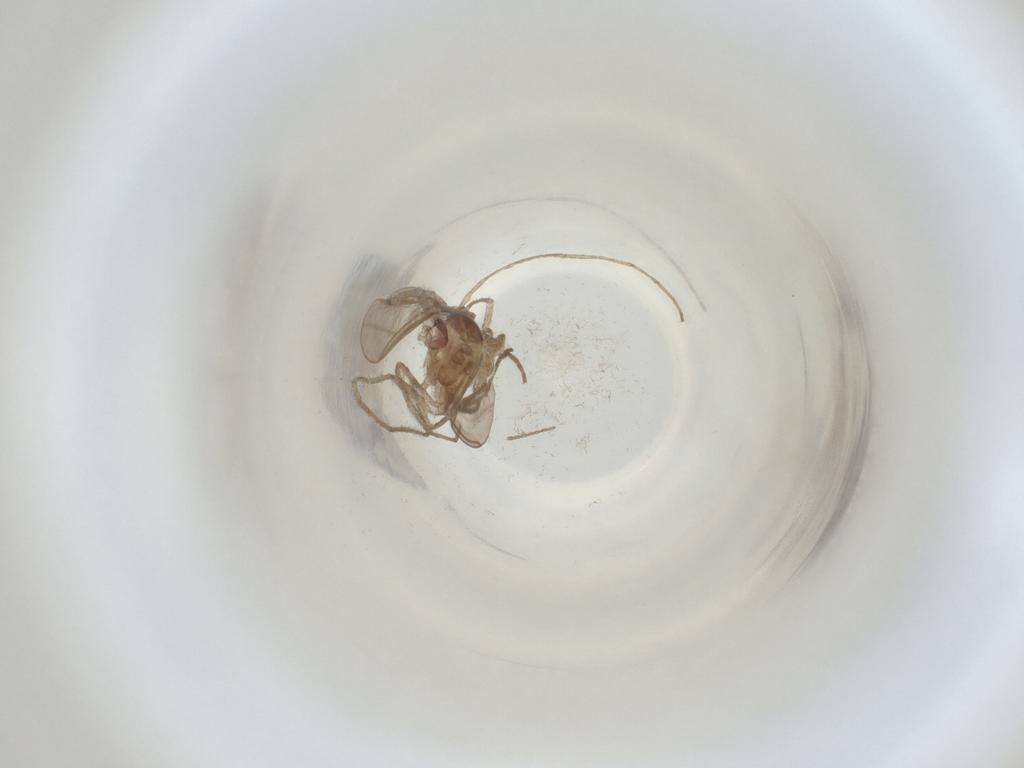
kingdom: Animalia
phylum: Arthropoda
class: Insecta
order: Diptera
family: Cecidomyiidae
